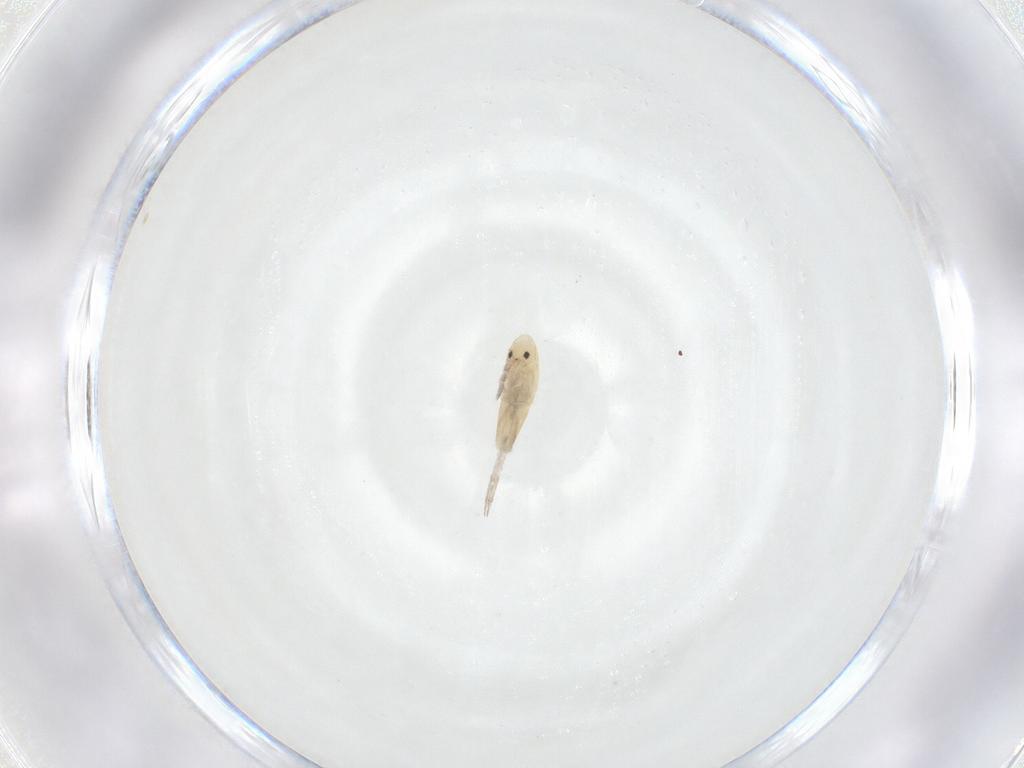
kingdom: Animalia
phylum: Arthropoda
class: Collembola
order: Entomobryomorpha
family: Entomobryidae
